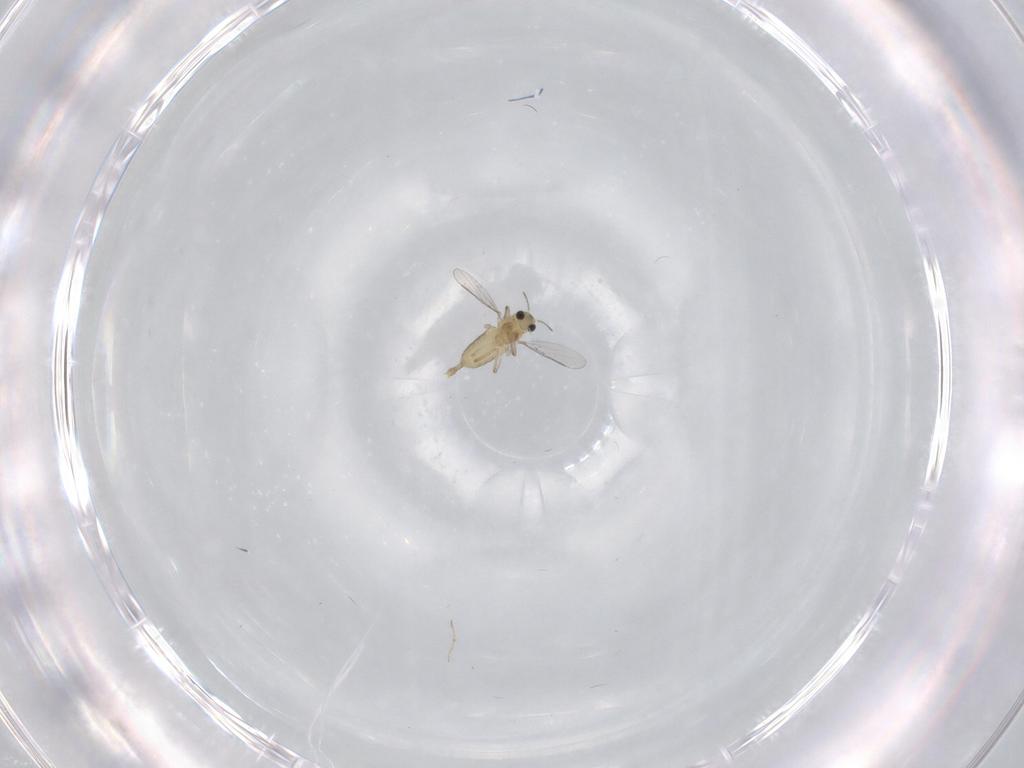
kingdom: Animalia
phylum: Arthropoda
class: Insecta
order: Diptera
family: Chironomidae
